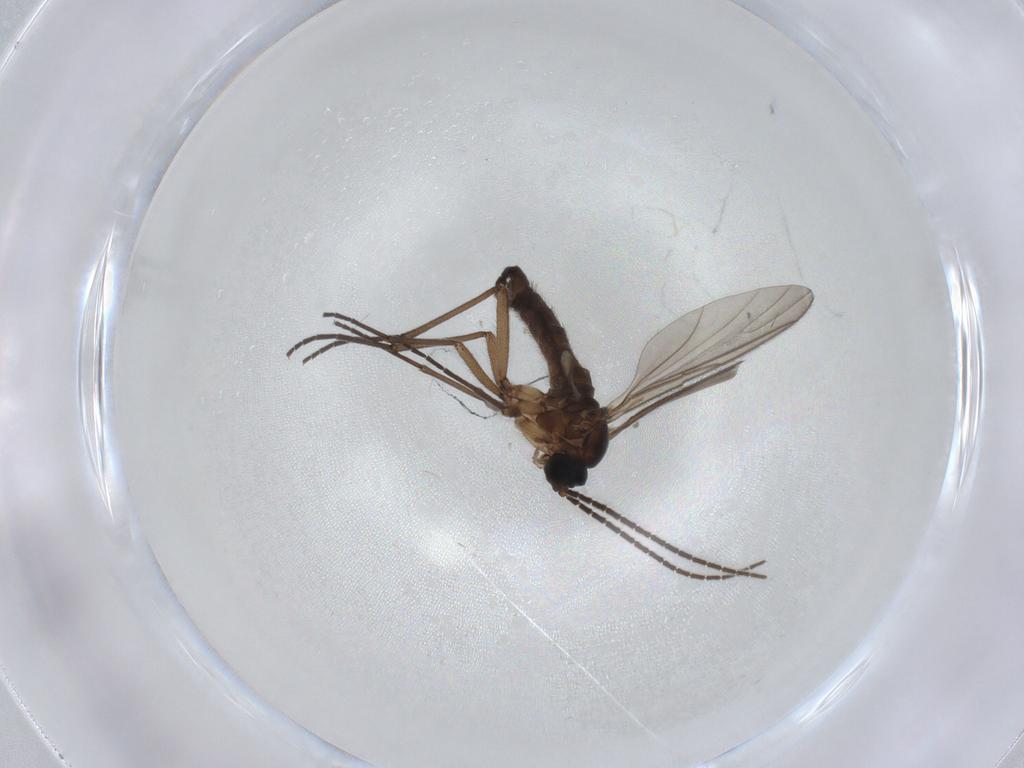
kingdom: Animalia
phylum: Arthropoda
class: Insecta
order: Diptera
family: Sciaridae
